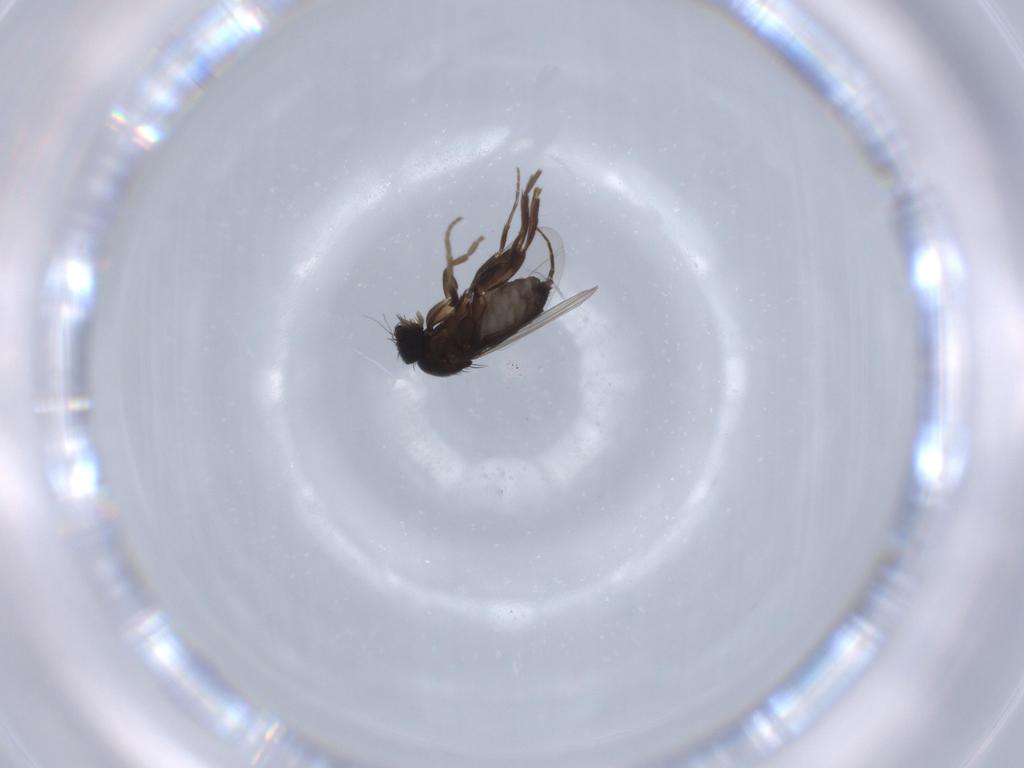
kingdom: Animalia
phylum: Arthropoda
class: Insecta
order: Diptera
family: Phoridae
